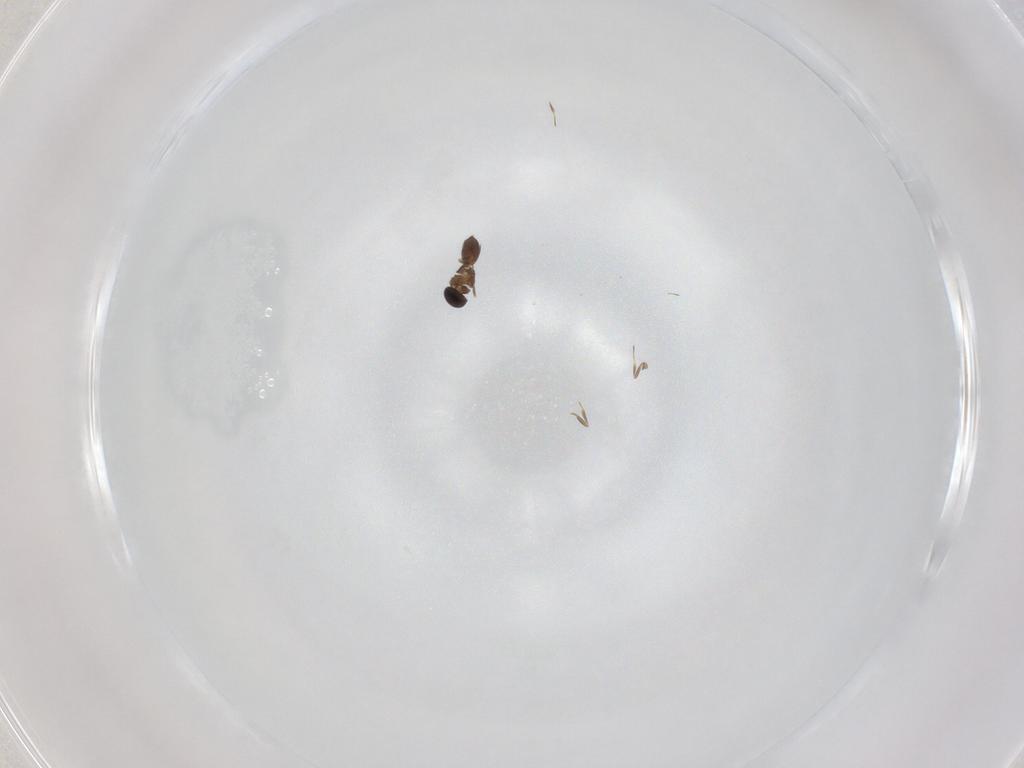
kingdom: Animalia
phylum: Arthropoda
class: Insecta
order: Hymenoptera
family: Scelionidae
